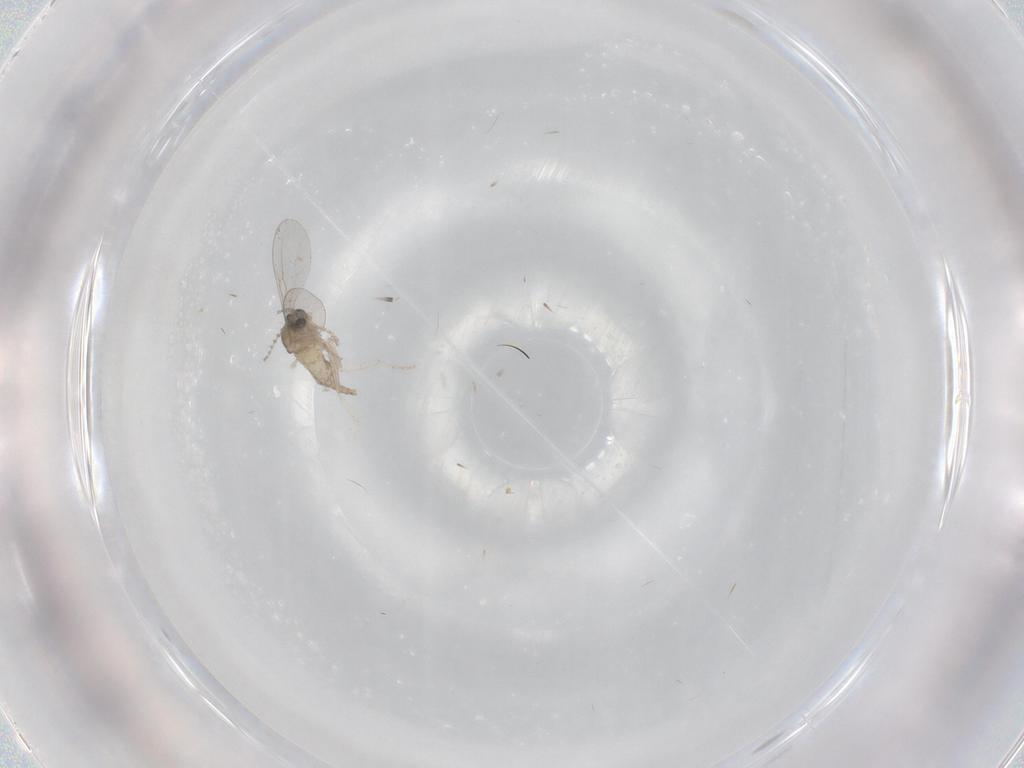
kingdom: Animalia
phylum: Arthropoda
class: Insecta
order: Diptera
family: Cecidomyiidae
